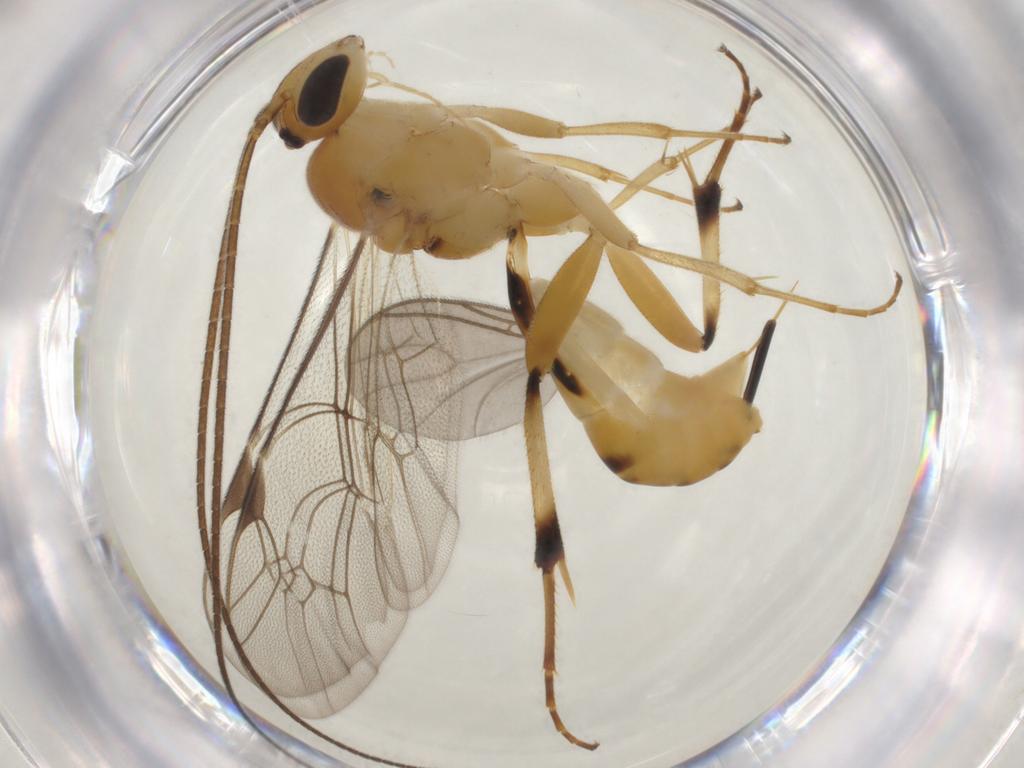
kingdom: Animalia
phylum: Arthropoda
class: Insecta
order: Hymenoptera
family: Ichneumonidae
